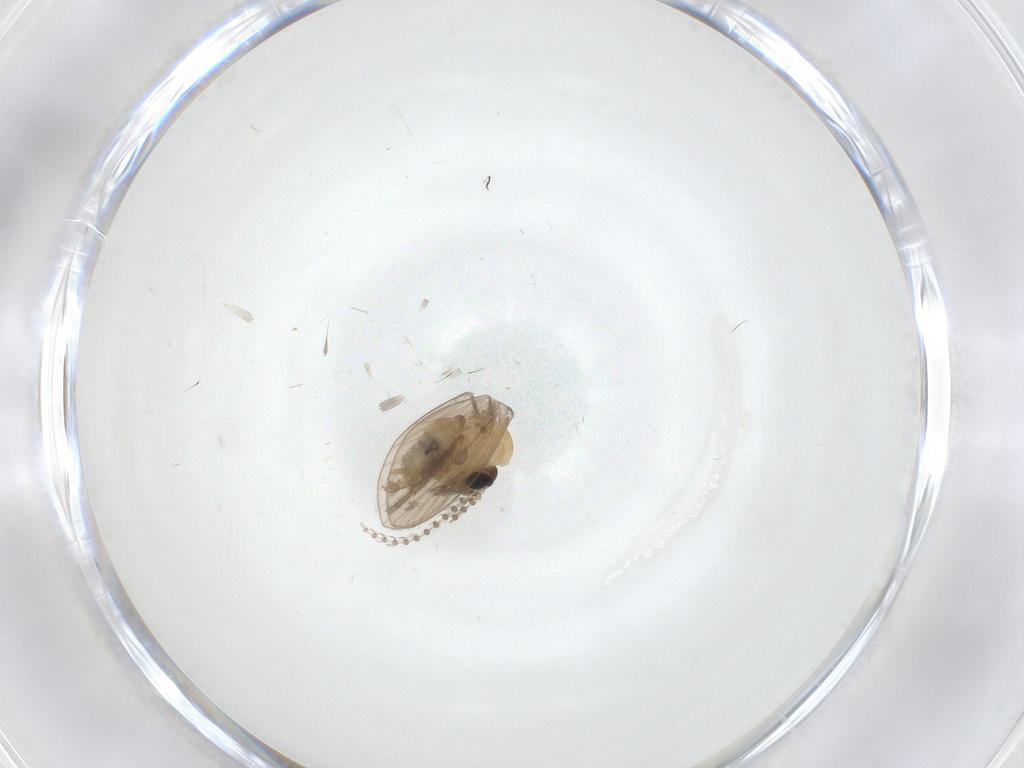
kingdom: Animalia
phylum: Arthropoda
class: Insecta
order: Diptera
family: Psychodidae
